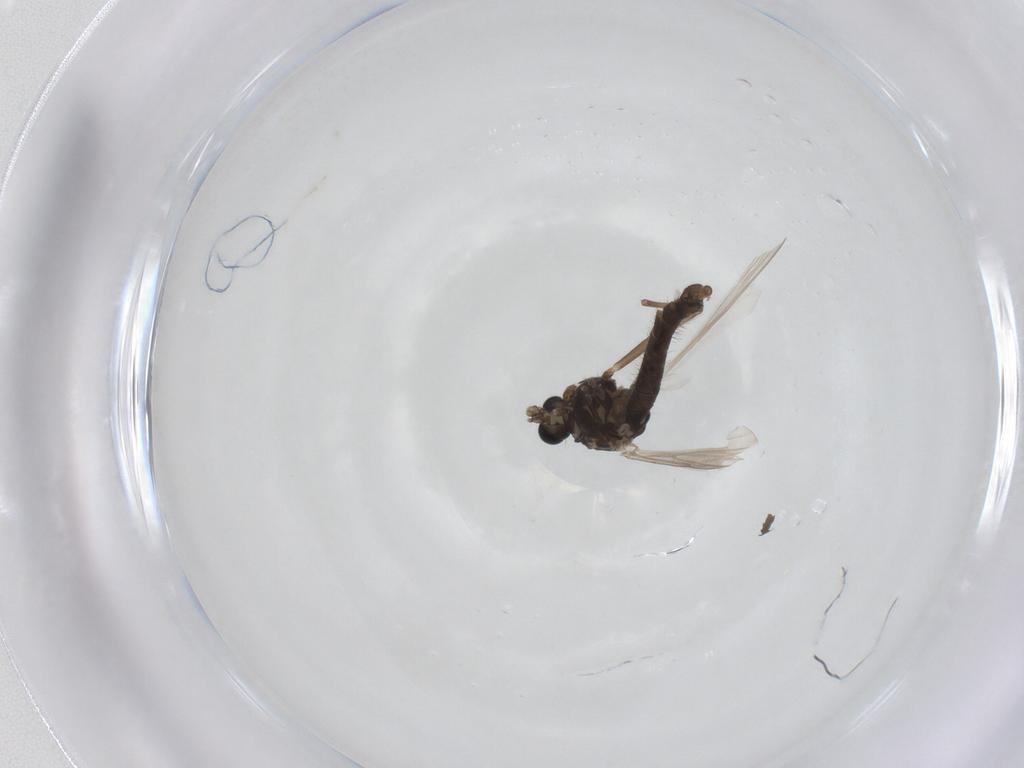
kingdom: Animalia
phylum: Arthropoda
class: Insecta
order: Diptera
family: Chironomidae
